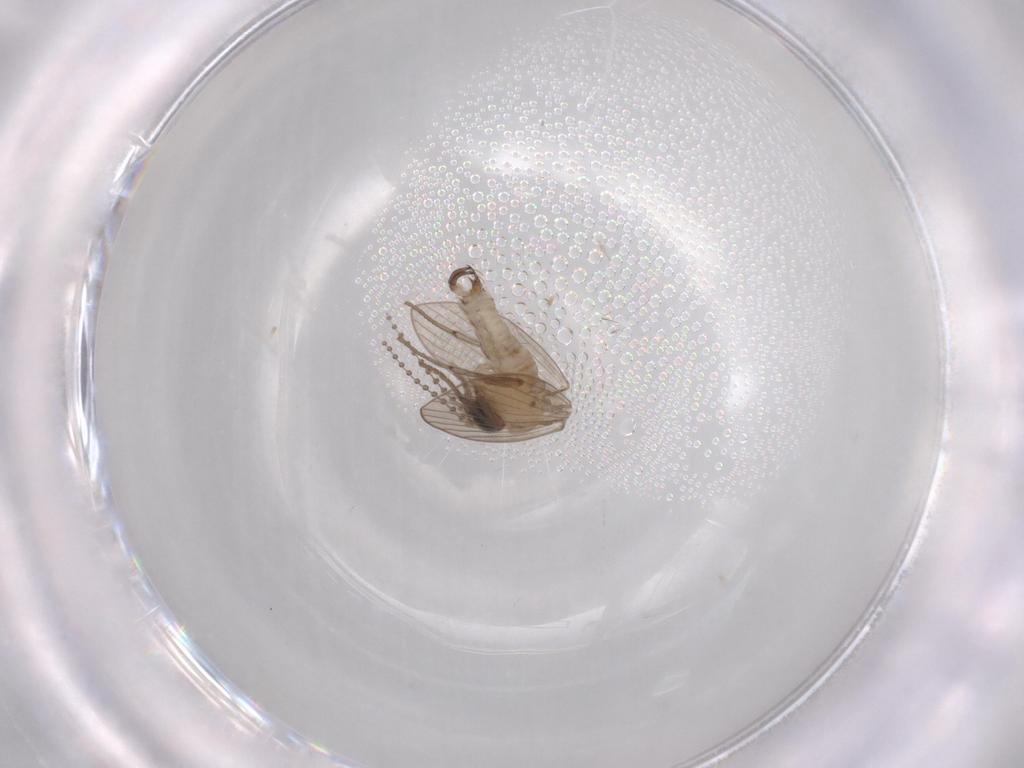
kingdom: Animalia
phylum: Arthropoda
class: Insecta
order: Diptera
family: Psychodidae
